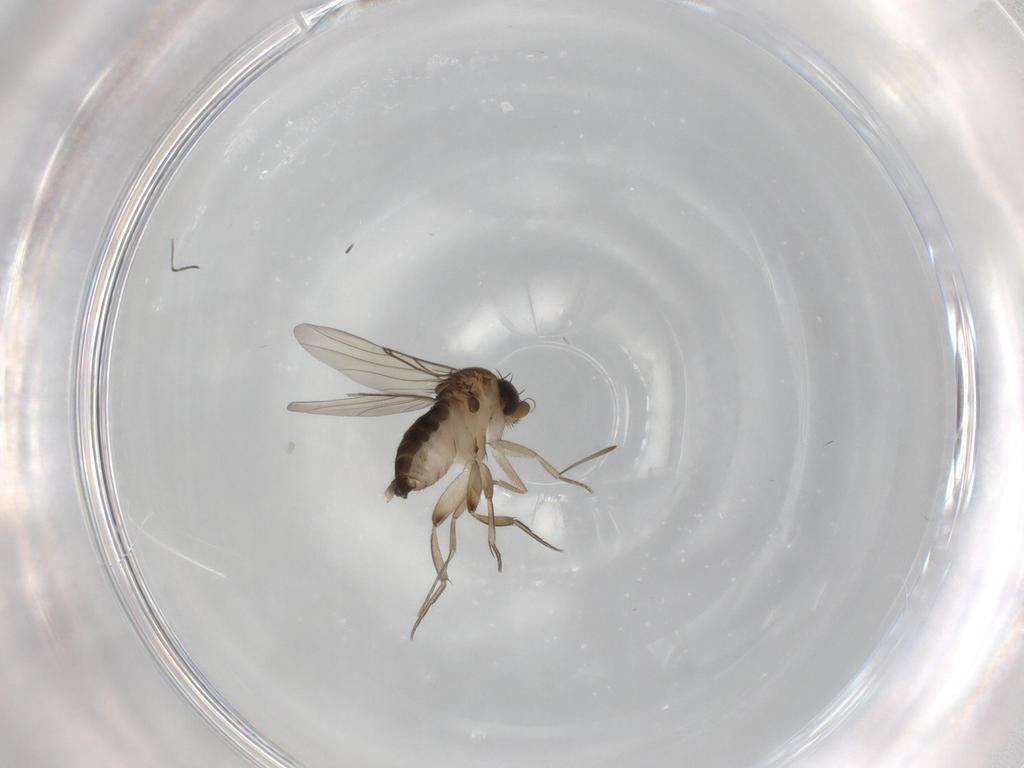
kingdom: Animalia
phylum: Arthropoda
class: Insecta
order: Diptera
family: Phoridae
